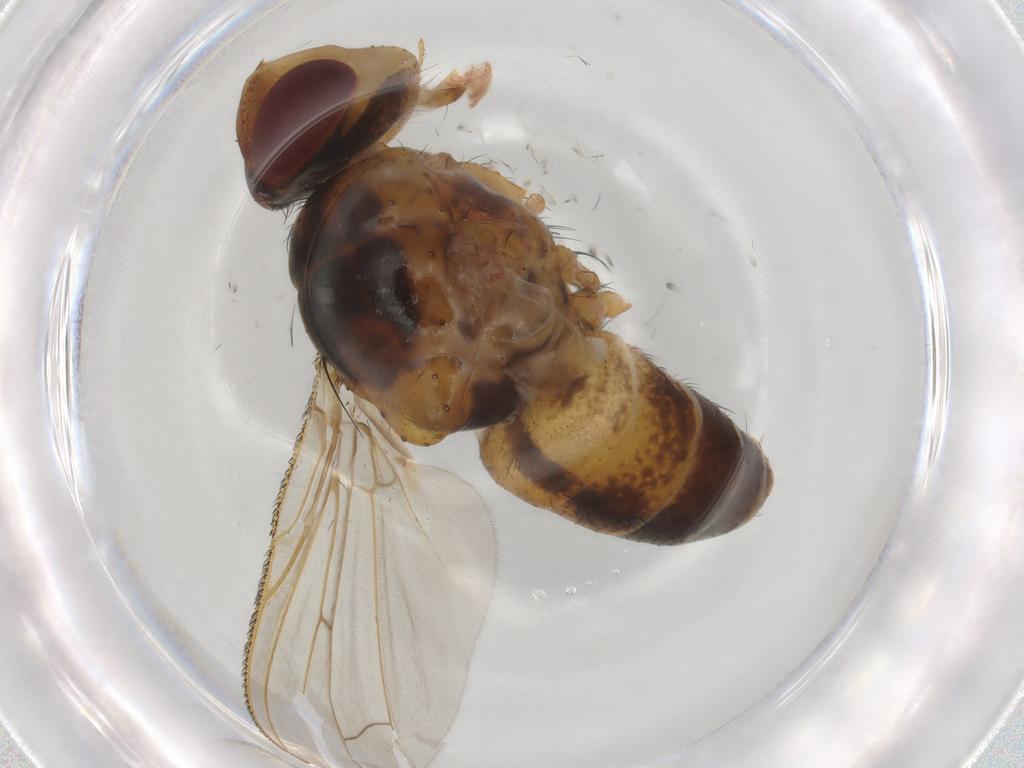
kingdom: Animalia
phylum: Arthropoda
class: Insecta
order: Diptera
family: Tachinidae
